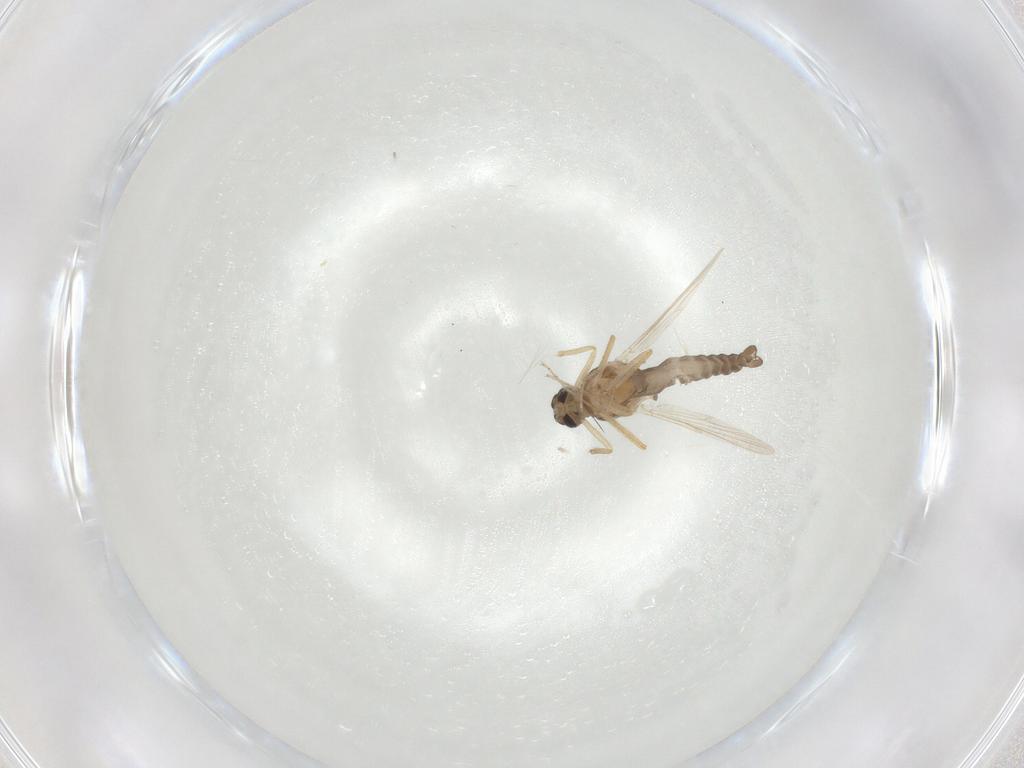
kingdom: Animalia
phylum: Arthropoda
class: Insecta
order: Diptera
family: Ceratopogonidae
